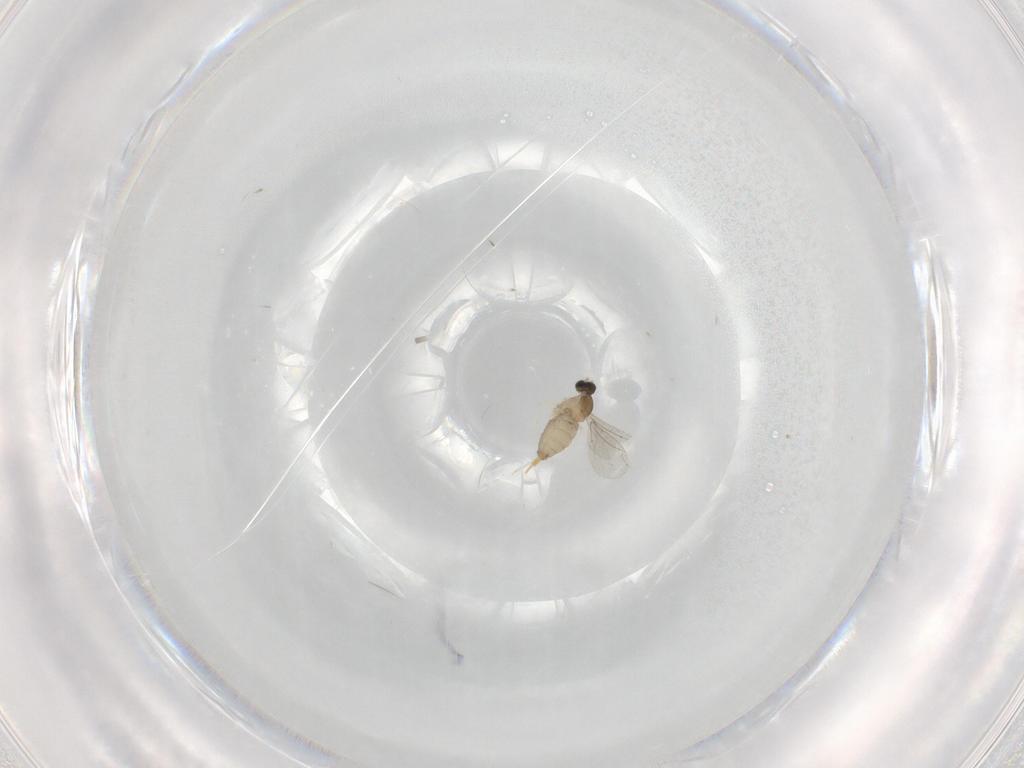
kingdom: Animalia
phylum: Arthropoda
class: Insecta
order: Diptera
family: Cecidomyiidae
